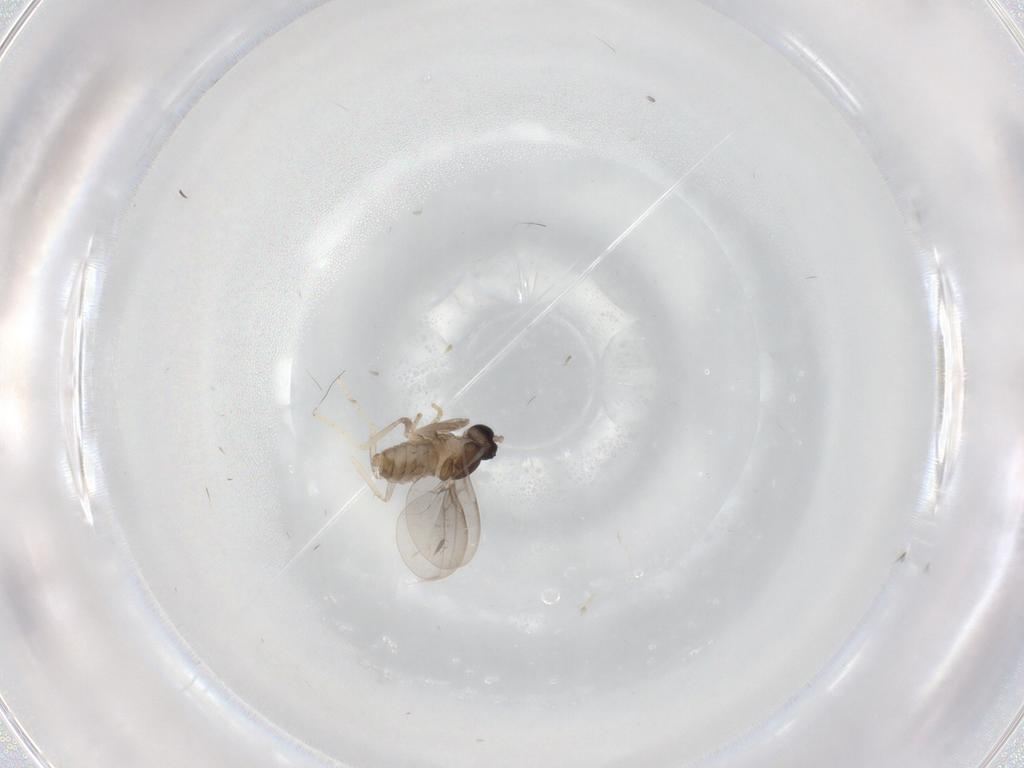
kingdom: Animalia
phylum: Arthropoda
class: Insecta
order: Diptera
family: Cecidomyiidae
